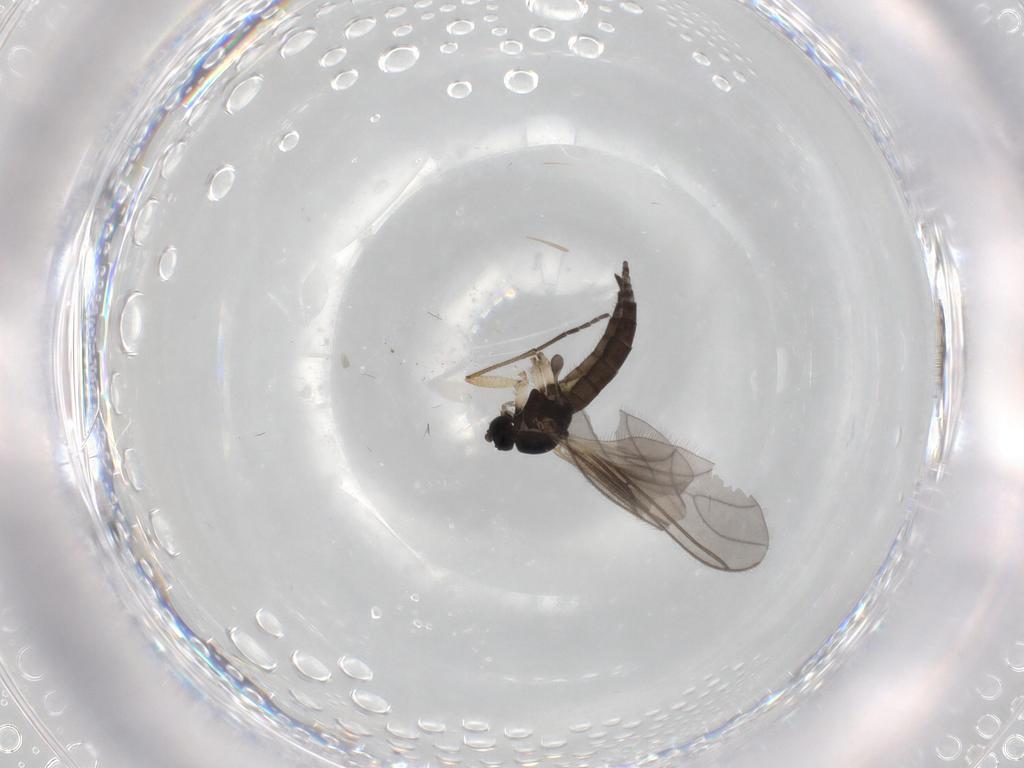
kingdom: Animalia
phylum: Arthropoda
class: Insecta
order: Diptera
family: Sciaridae
